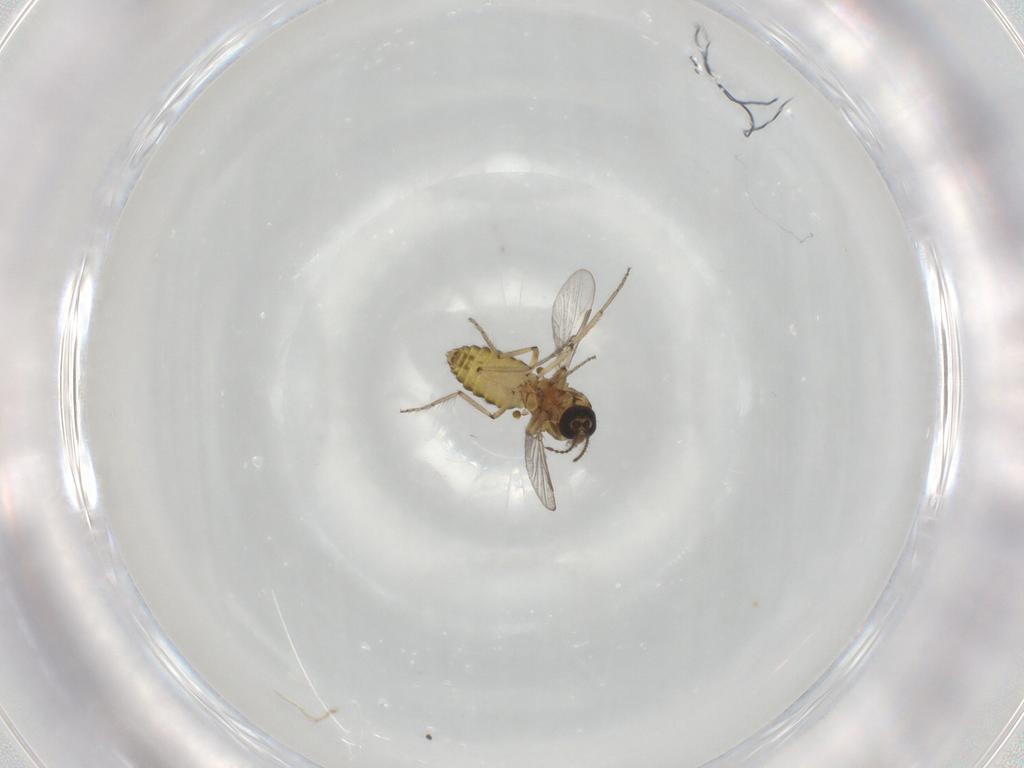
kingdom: Animalia
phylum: Arthropoda
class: Insecta
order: Diptera
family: Ceratopogonidae
